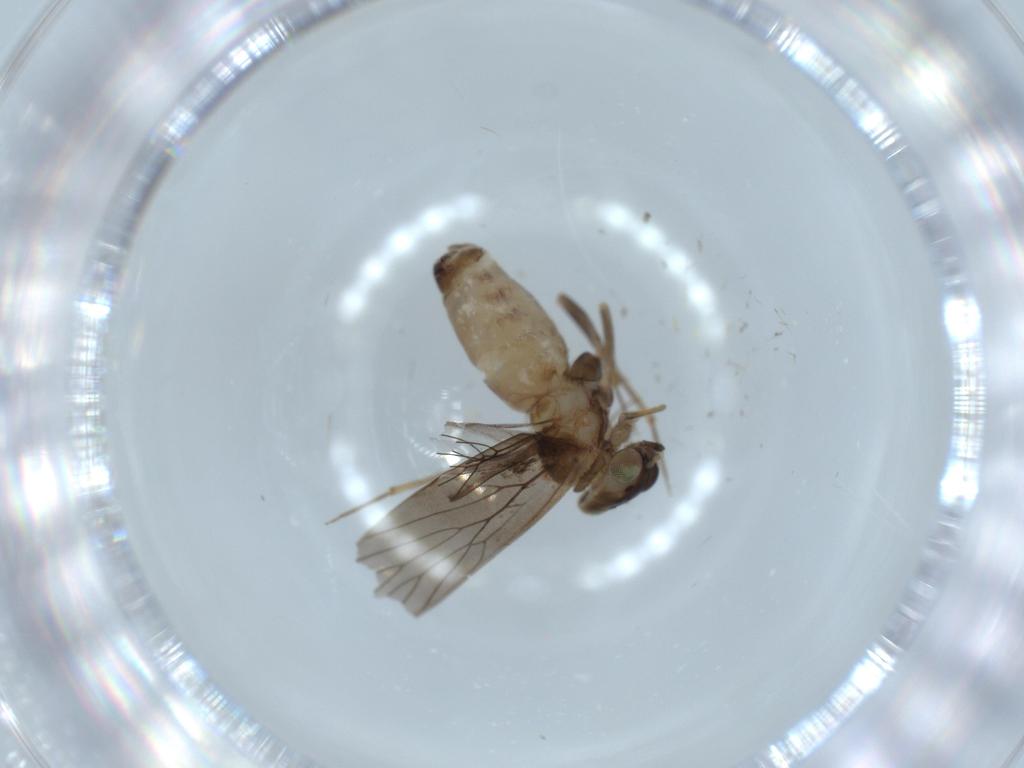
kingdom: Animalia
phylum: Arthropoda
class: Insecta
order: Psocodea
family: Lepidopsocidae
